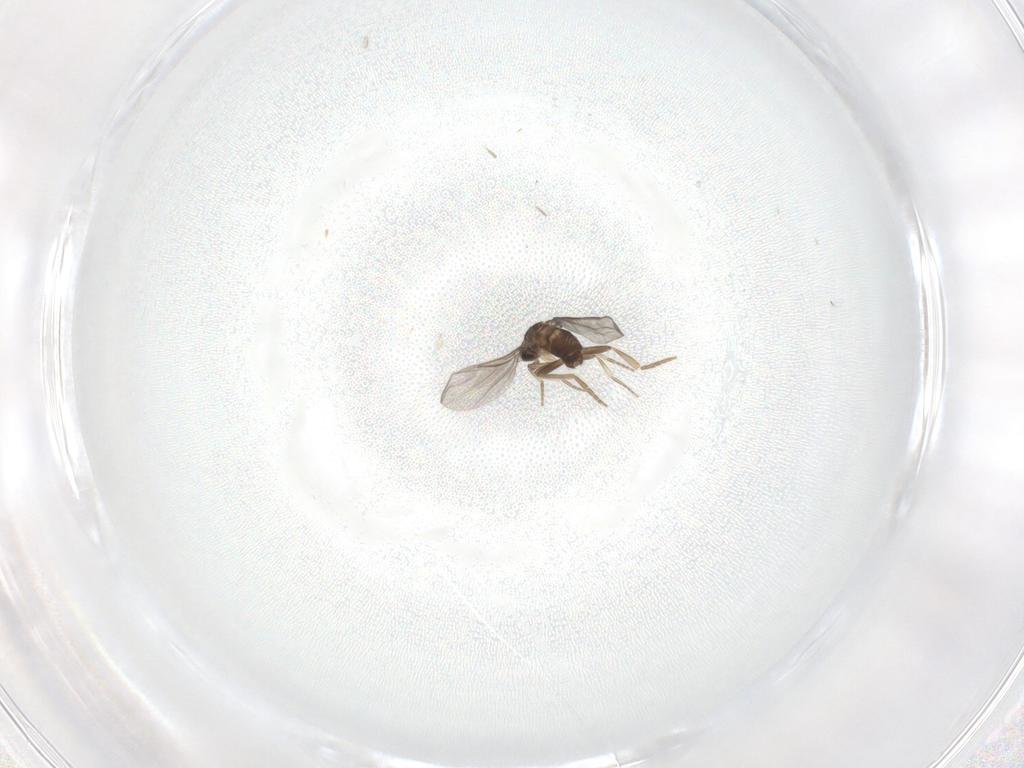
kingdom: Animalia
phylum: Arthropoda
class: Insecta
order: Diptera
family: Chironomidae
